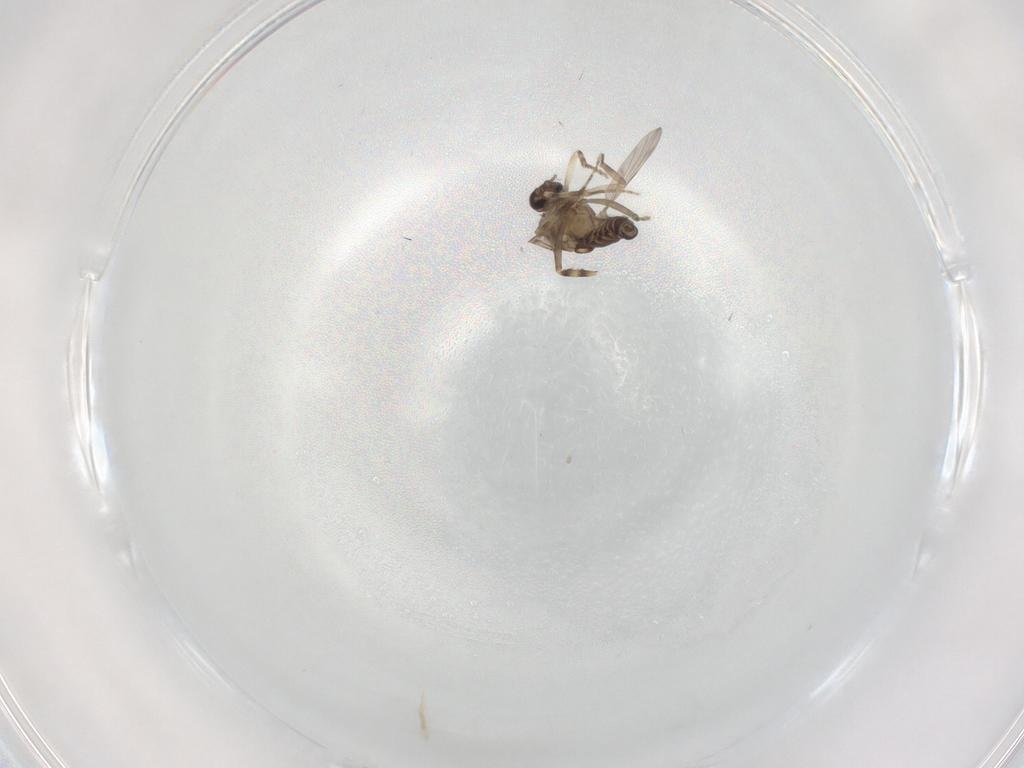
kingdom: Animalia
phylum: Arthropoda
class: Insecta
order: Diptera
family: Ceratopogonidae
